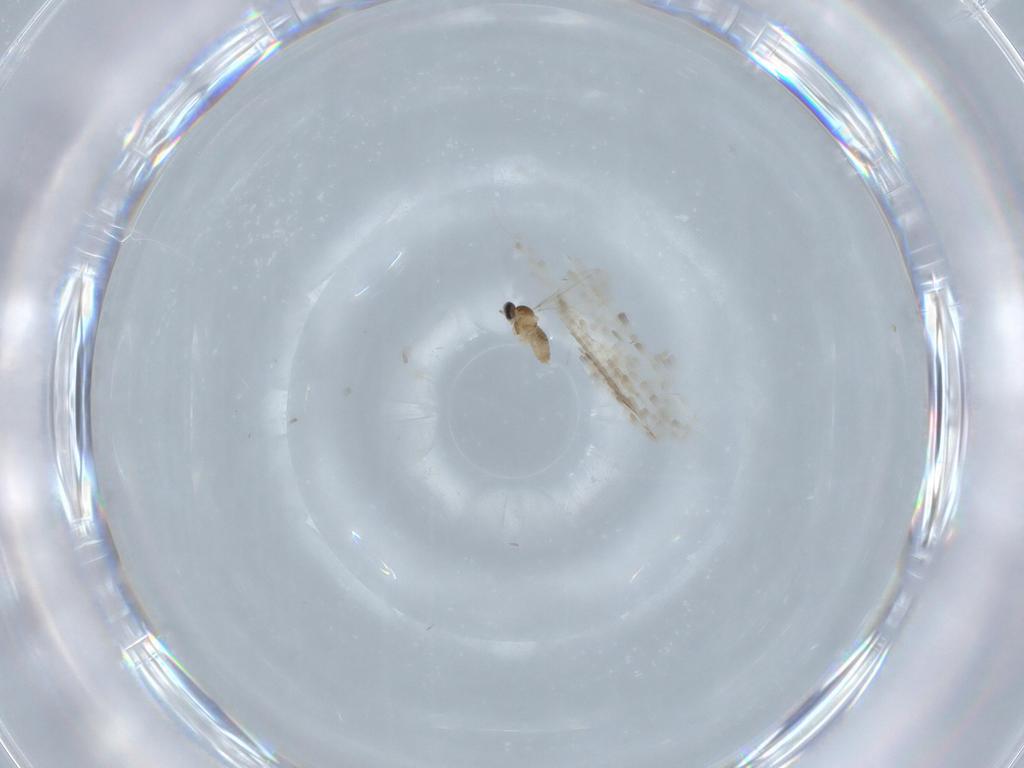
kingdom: Animalia
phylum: Arthropoda
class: Insecta
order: Diptera
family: Cecidomyiidae
